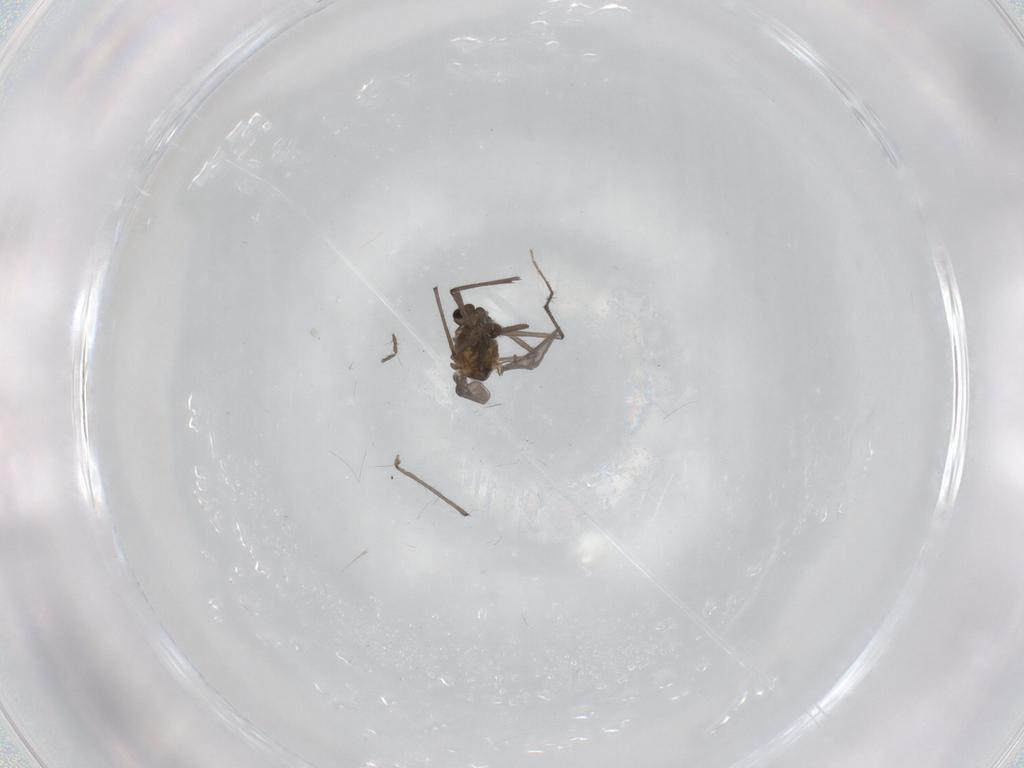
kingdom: Animalia
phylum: Arthropoda
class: Insecta
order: Diptera
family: Chironomidae
